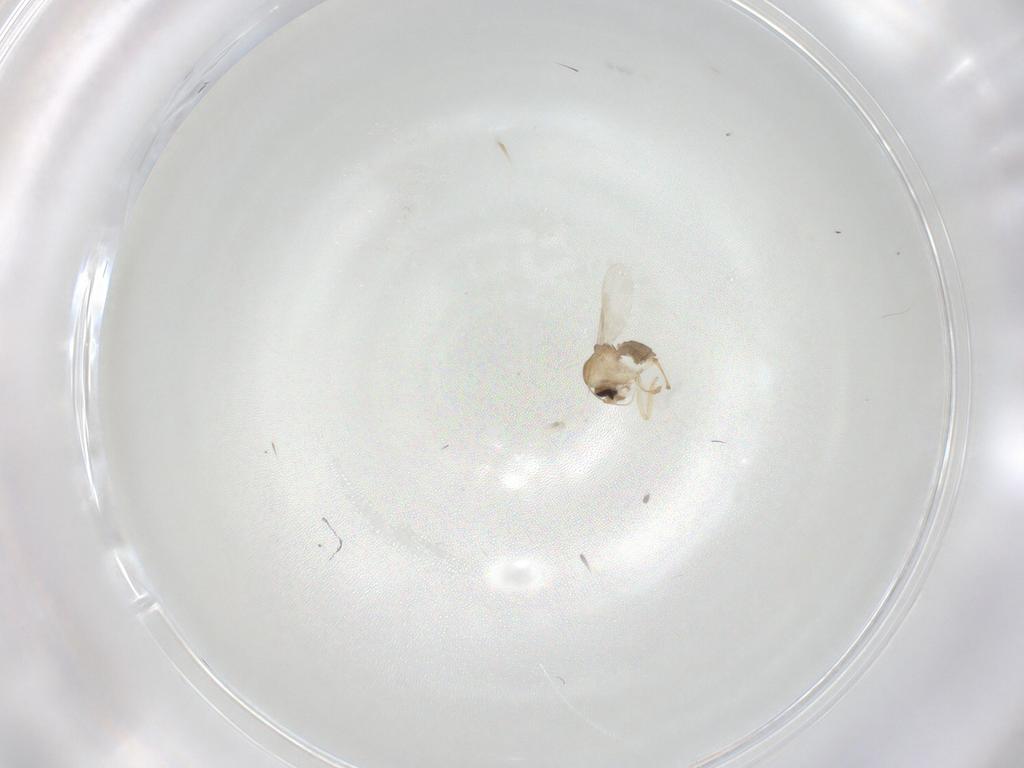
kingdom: Animalia
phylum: Arthropoda
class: Insecta
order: Diptera
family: Ceratopogonidae
